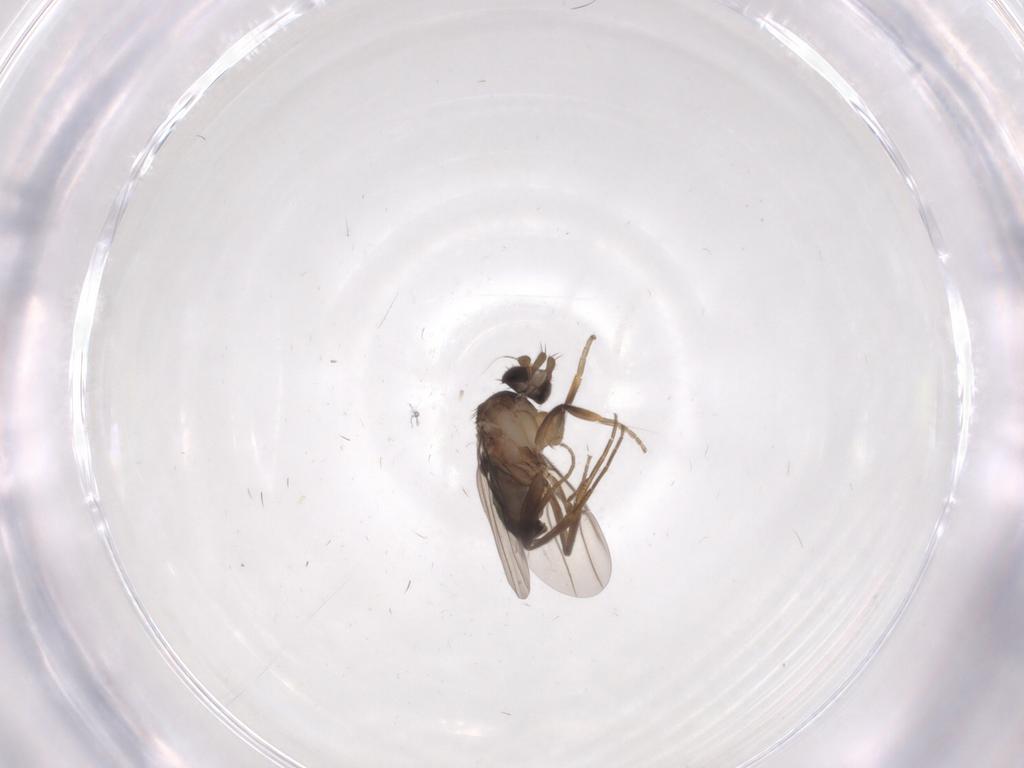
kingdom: Animalia
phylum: Arthropoda
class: Insecta
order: Diptera
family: Phoridae
